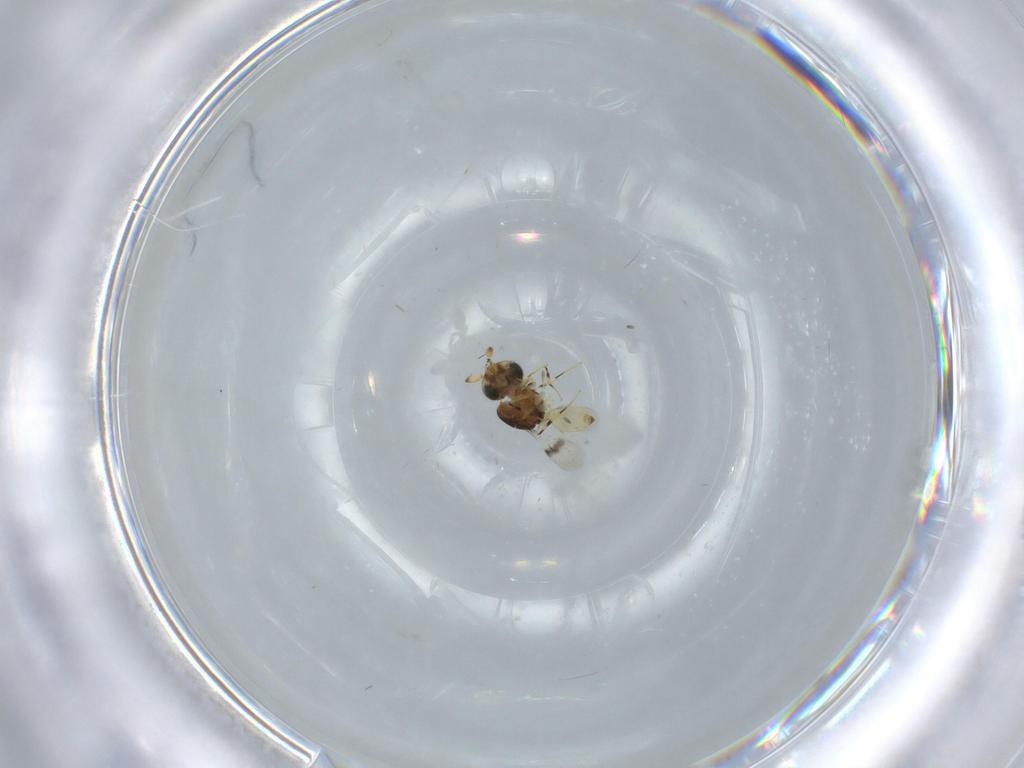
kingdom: Animalia
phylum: Arthropoda
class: Insecta
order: Hymenoptera
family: Scelionidae
